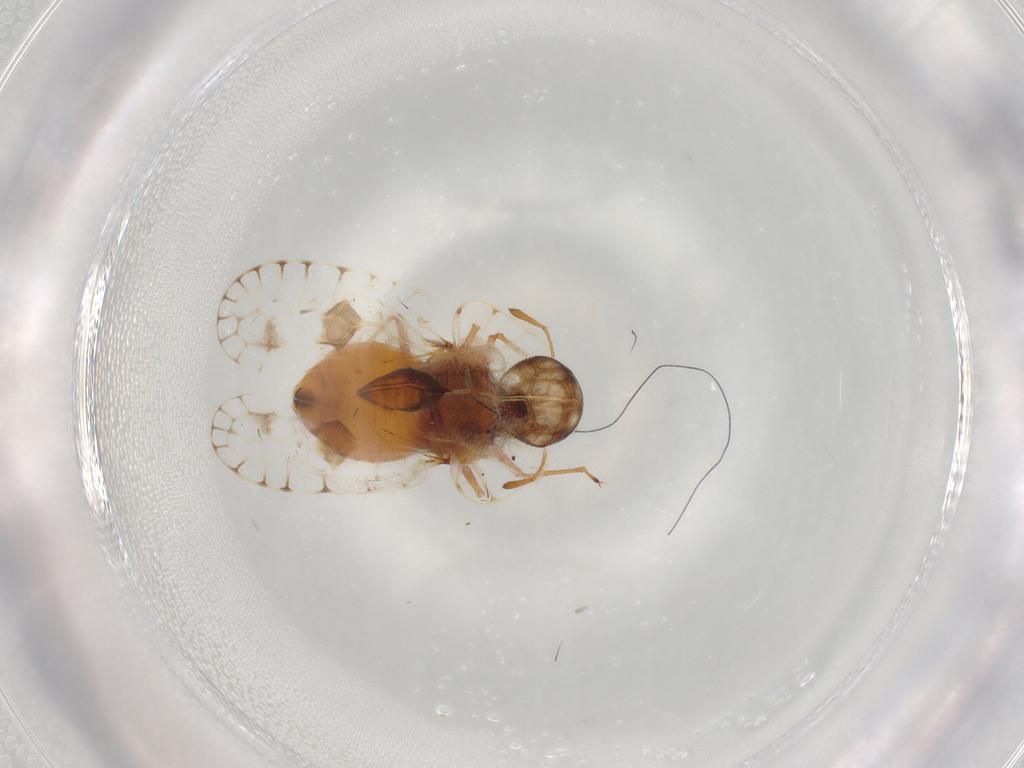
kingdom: Animalia
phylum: Arthropoda
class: Insecta
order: Hemiptera
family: Tingidae
